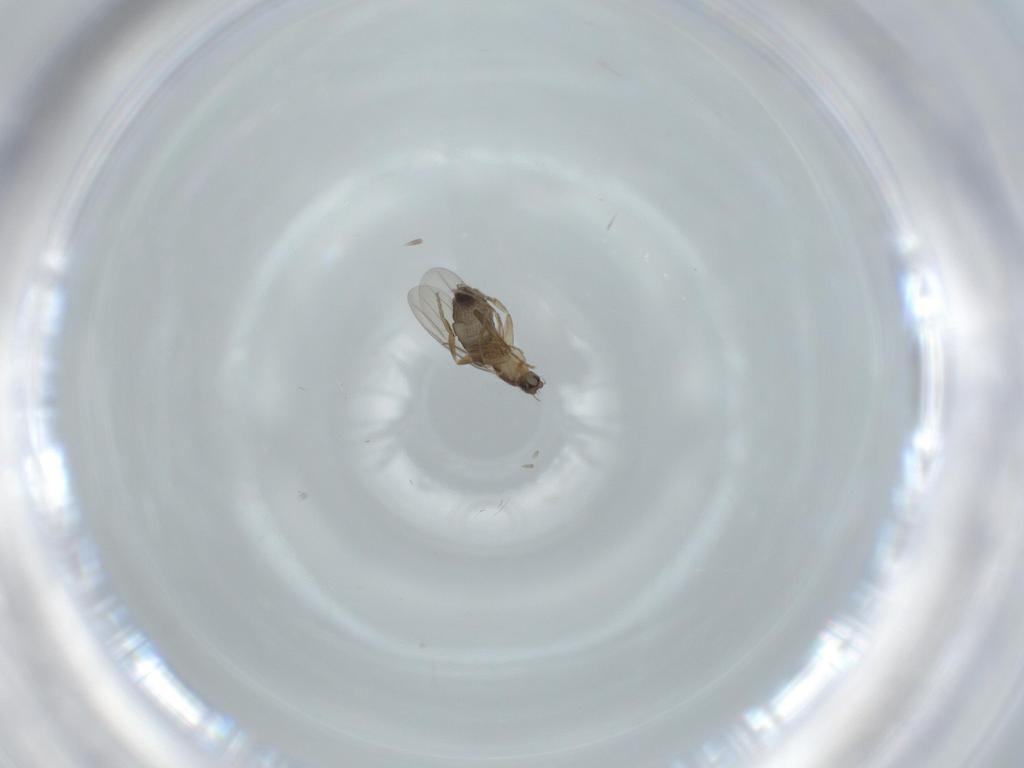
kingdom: Animalia
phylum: Arthropoda
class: Insecta
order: Diptera
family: Phoridae
